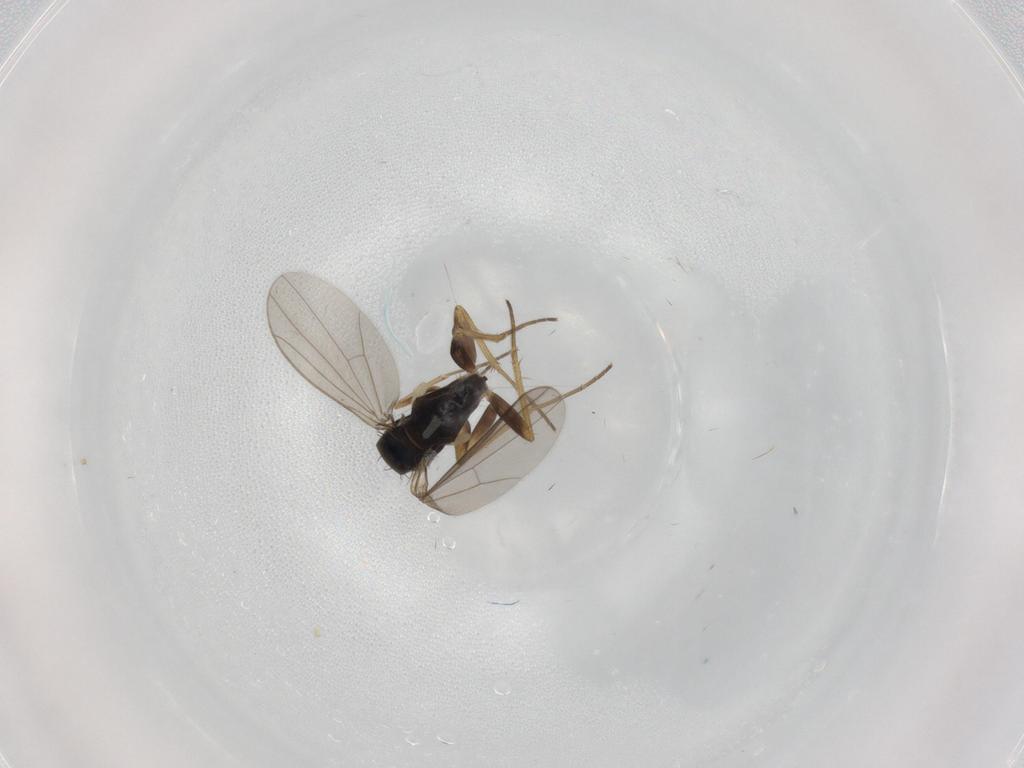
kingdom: Animalia
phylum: Arthropoda
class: Insecta
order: Diptera
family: Dolichopodidae
